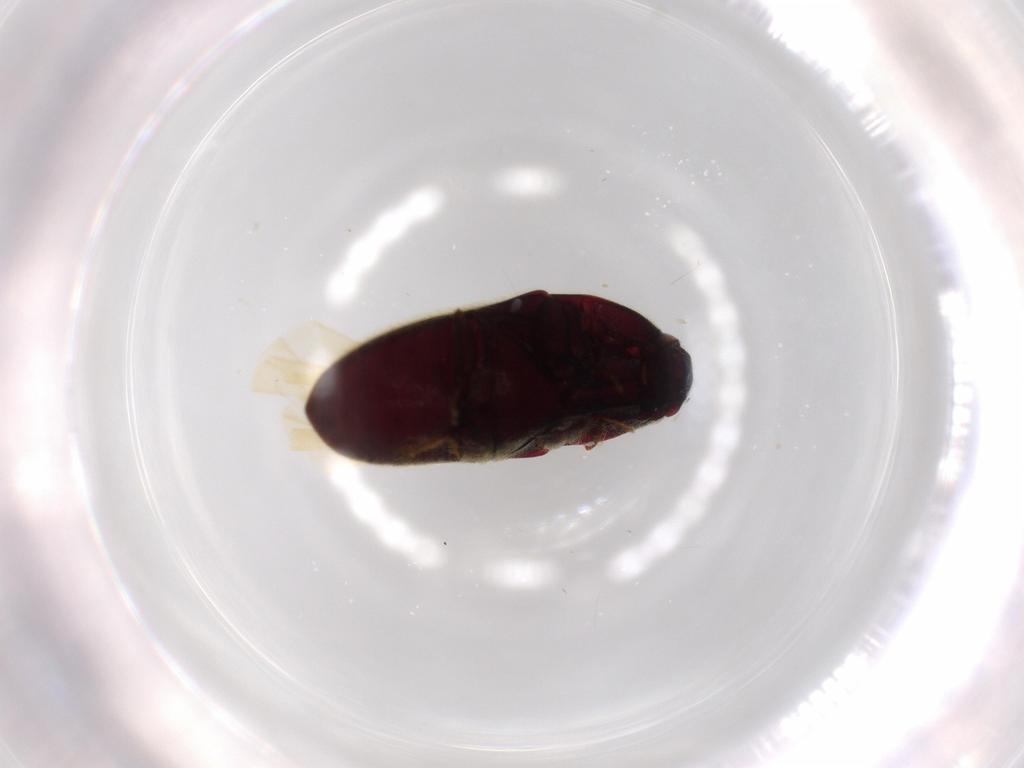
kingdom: Animalia
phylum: Arthropoda
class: Insecta
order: Coleoptera
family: Throscidae
